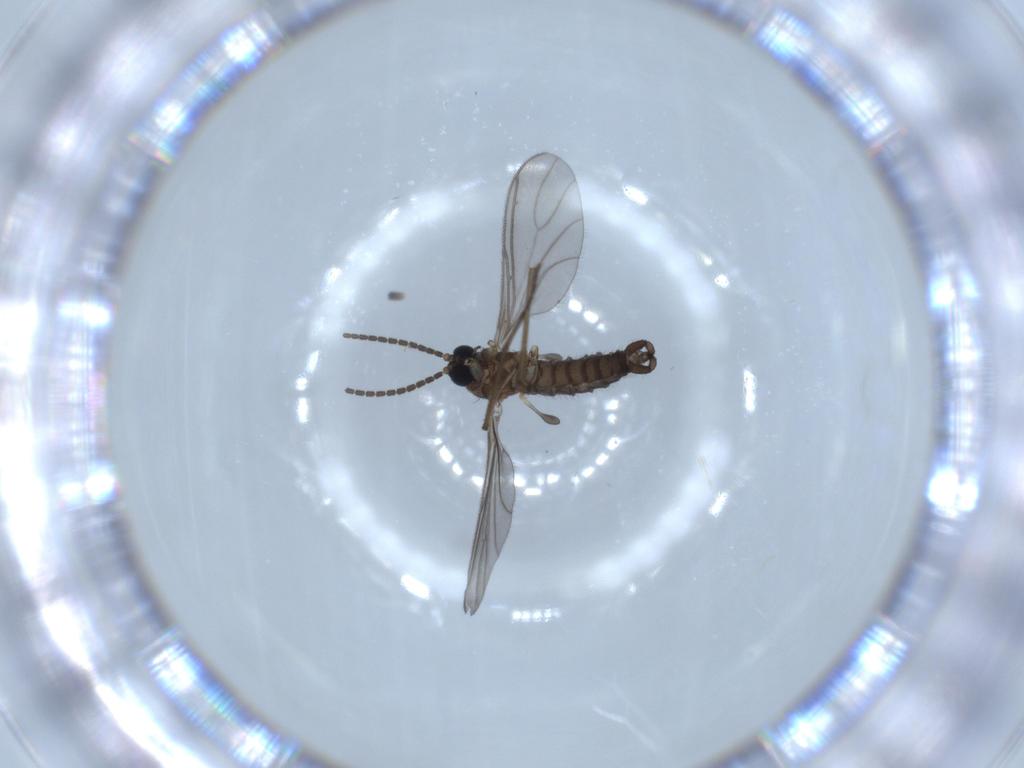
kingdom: Animalia
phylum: Arthropoda
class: Insecta
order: Diptera
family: Sciaridae
